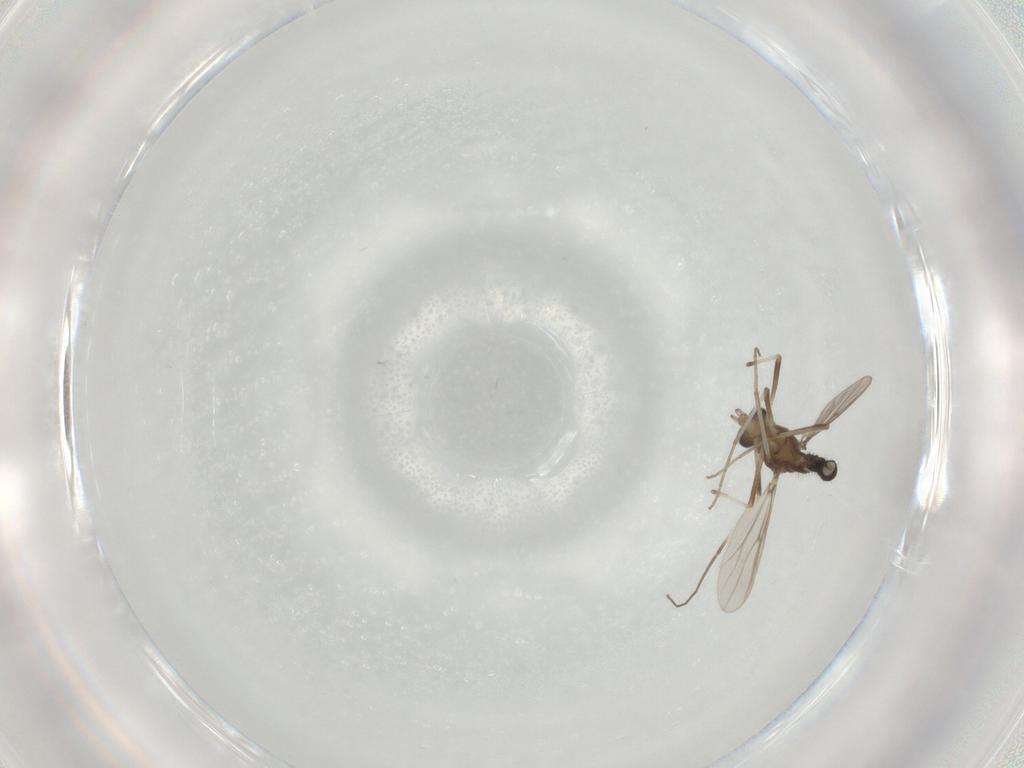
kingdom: Animalia
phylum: Arthropoda
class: Insecta
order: Diptera
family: Chironomidae
